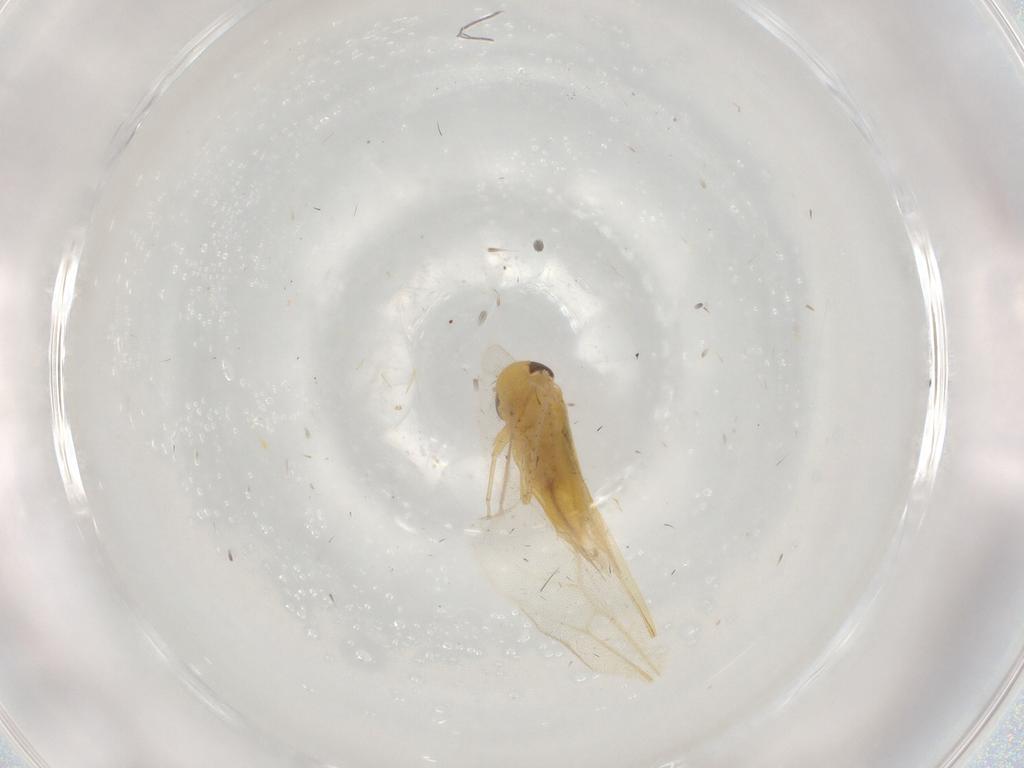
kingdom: Animalia
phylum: Arthropoda
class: Insecta
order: Hemiptera
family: Cicadellidae
